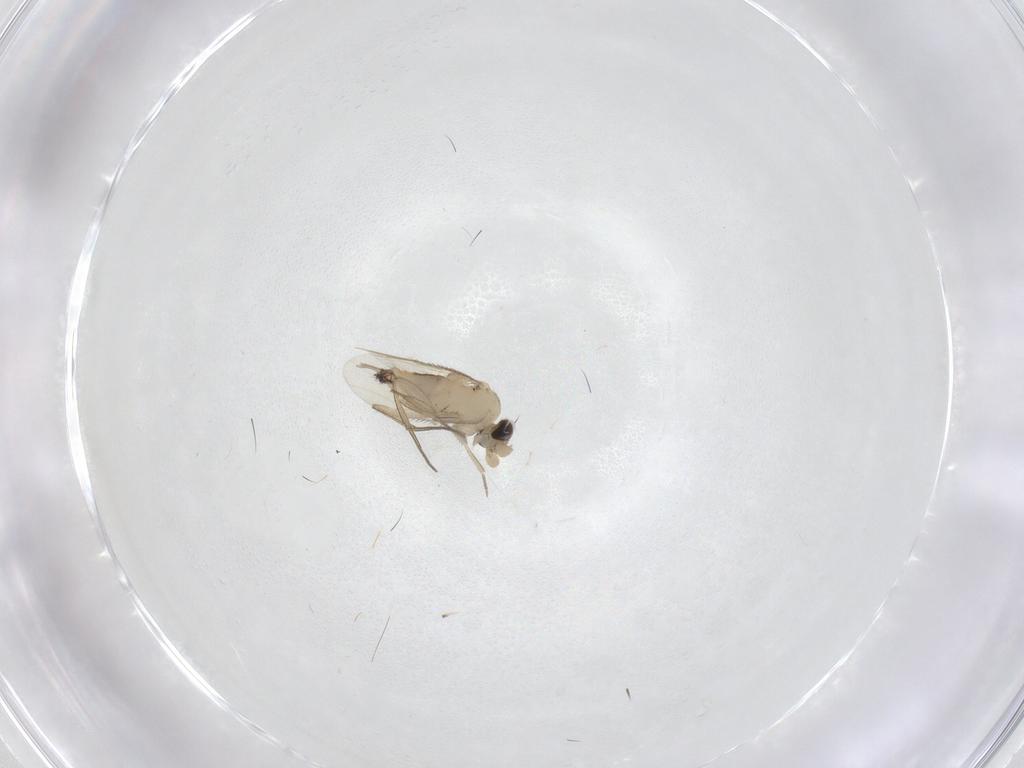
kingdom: Animalia
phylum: Arthropoda
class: Insecta
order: Diptera
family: Phoridae
